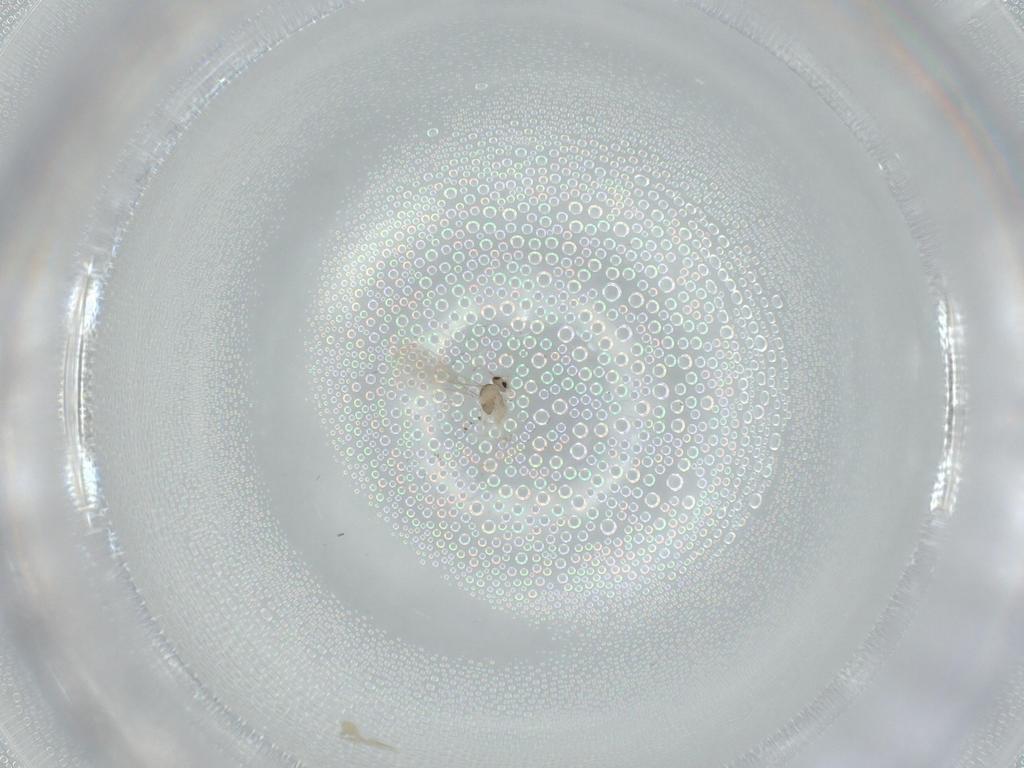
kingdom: Animalia
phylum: Arthropoda
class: Insecta
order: Diptera
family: Cecidomyiidae
